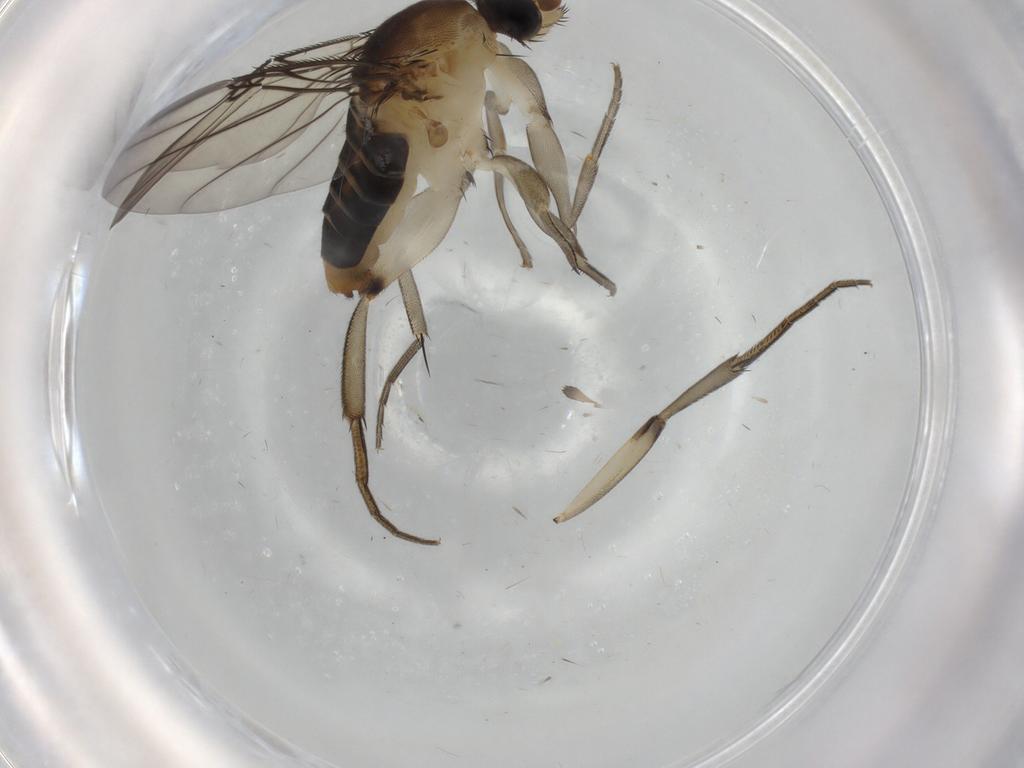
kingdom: Animalia
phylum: Arthropoda
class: Insecta
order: Diptera
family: Phoridae
